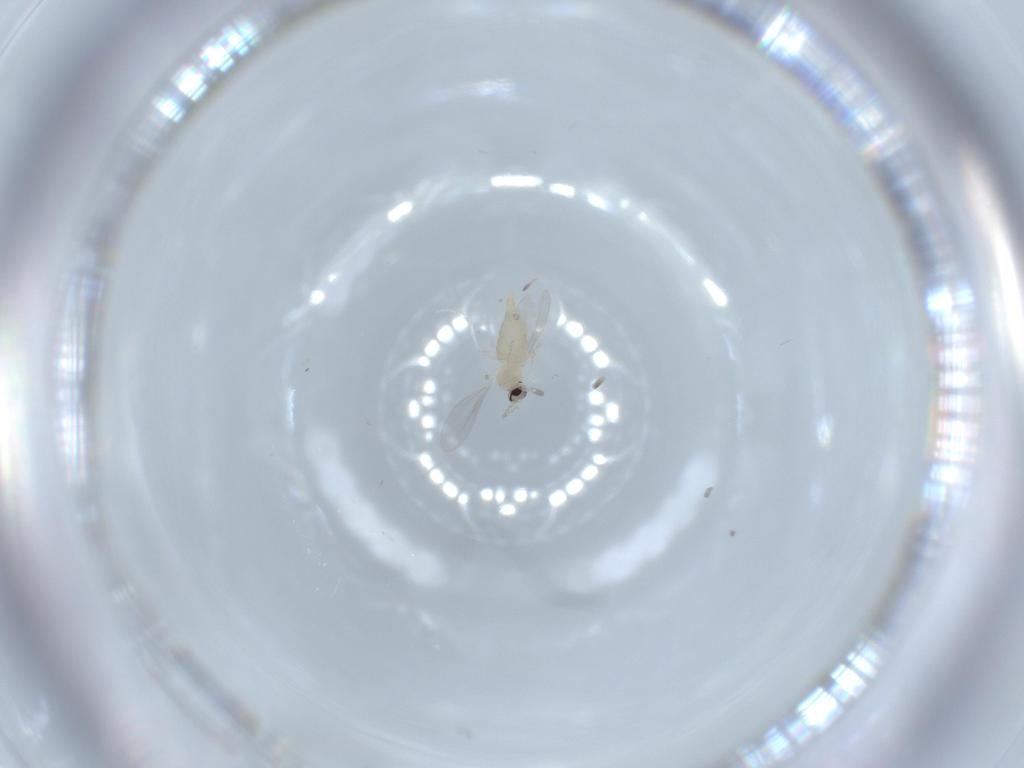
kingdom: Animalia
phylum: Arthropoda
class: Insecta
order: Diptera
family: Cecidomyiidae
